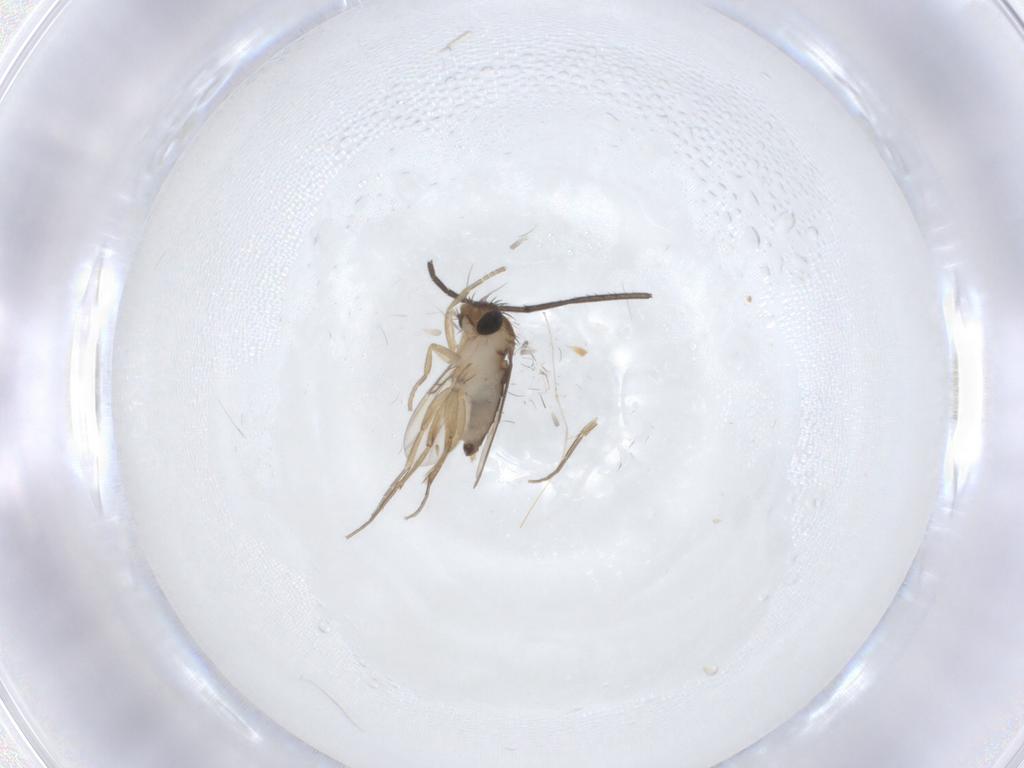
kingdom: Animalia
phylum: Arthropoda
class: Insecta
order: Diptera
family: Phoridae
